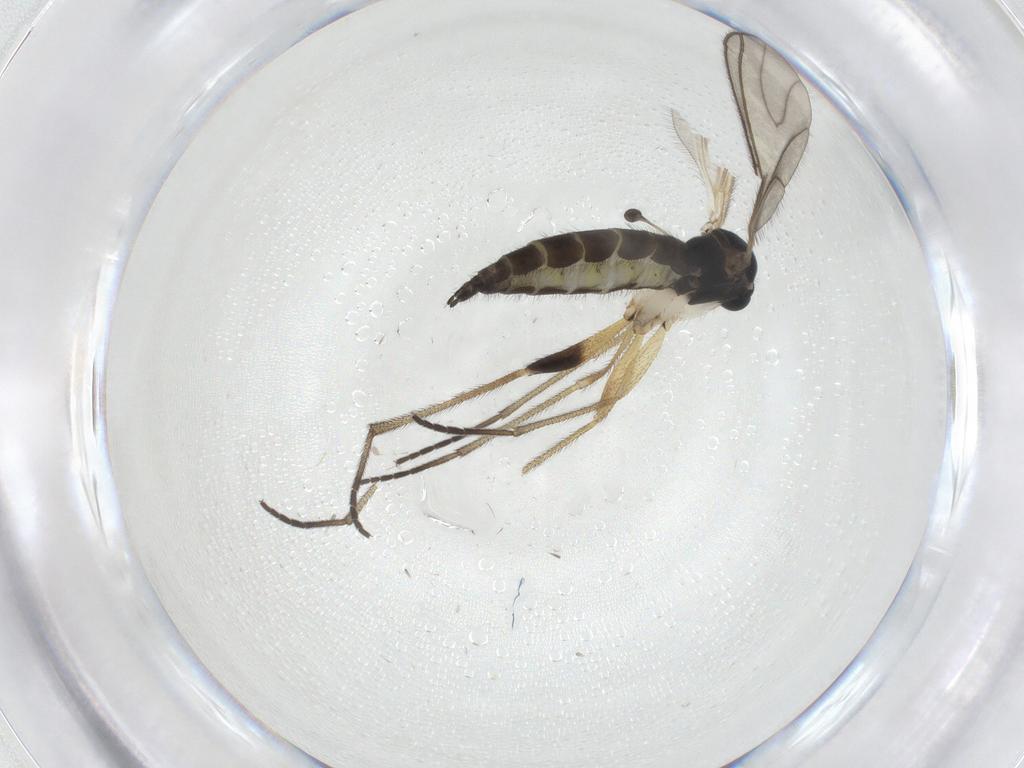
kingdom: Animalia
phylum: Arthropoda
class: Insecta
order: Diptera
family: Sciaridae
